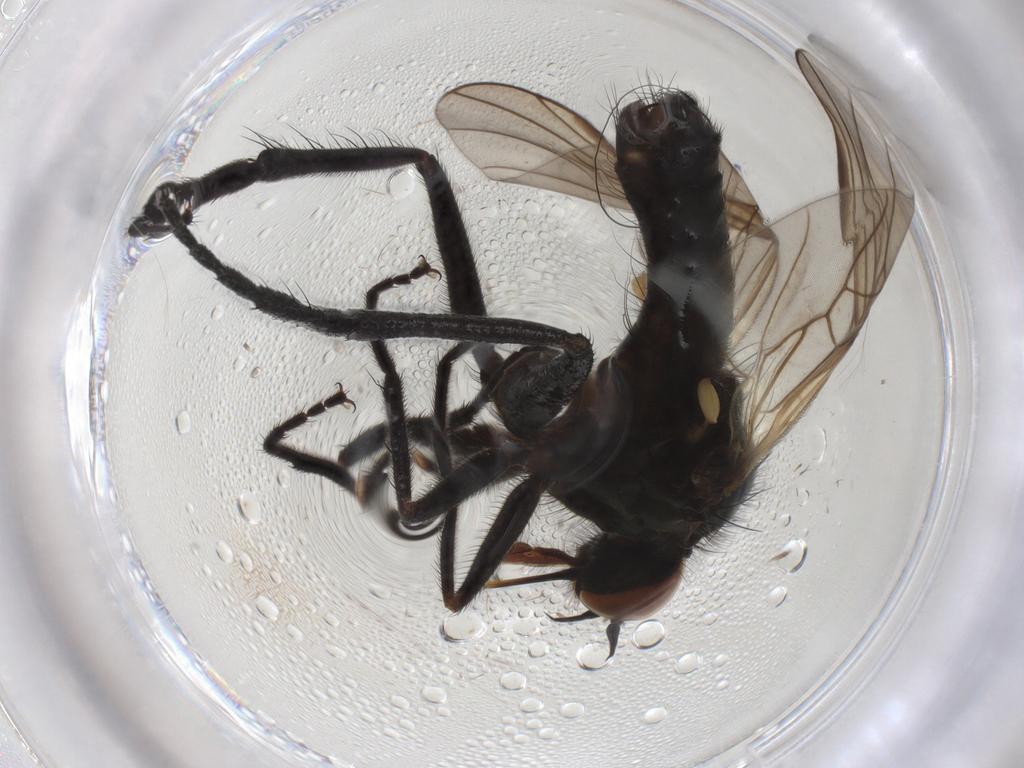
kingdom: Animalia
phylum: Arthropoda
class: Insecta
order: Diptera
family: Empididae
